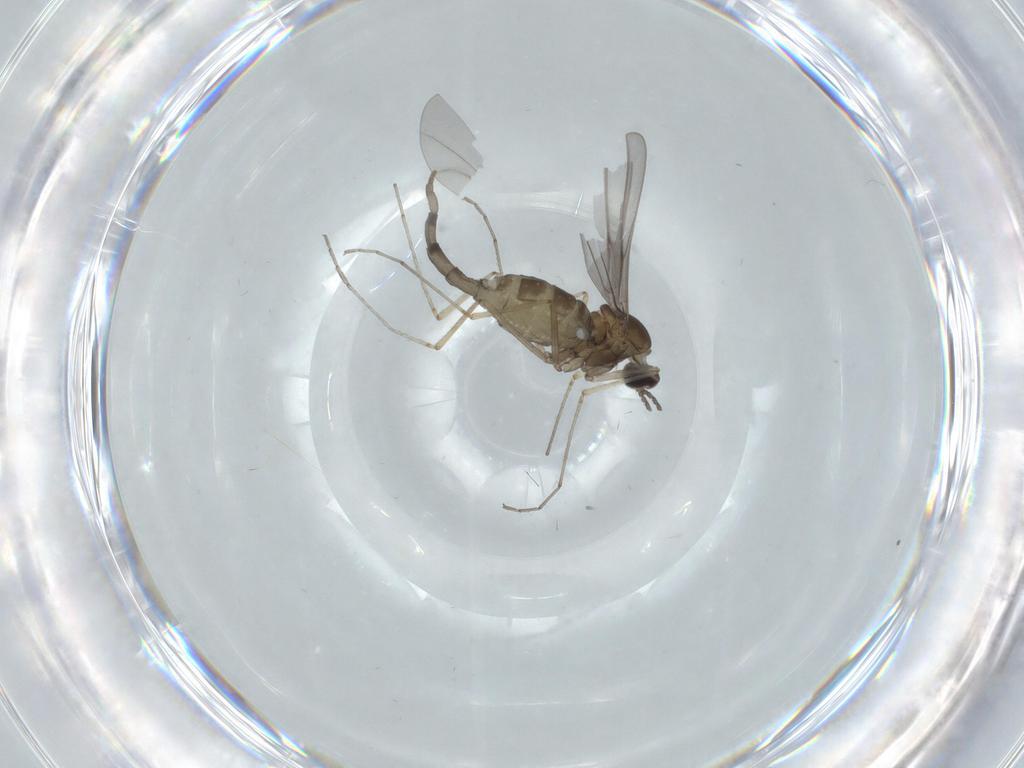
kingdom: Animalia
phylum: Arthropoda
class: Insecta
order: Diptera
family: Cecidomyiidae
